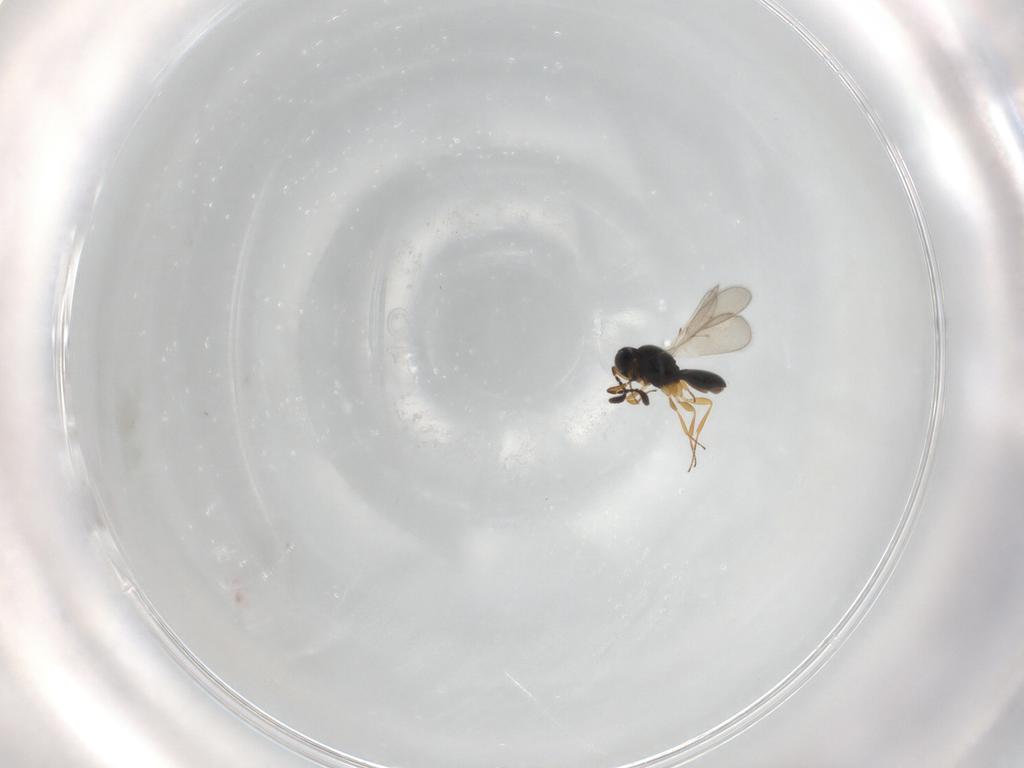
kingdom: Animalia
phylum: Arthropoda
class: Insecta
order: Hymenoptera
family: Scelionidae
